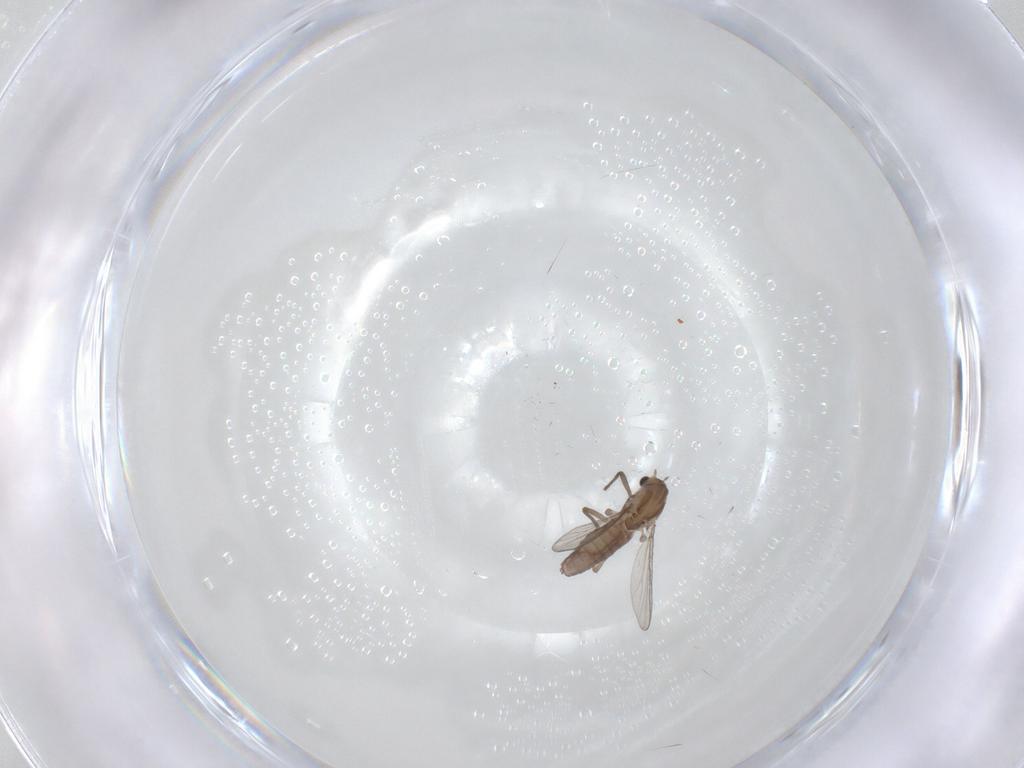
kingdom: Animalia
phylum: Arthropoda
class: Insecta
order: Diptera
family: Chironomidae
